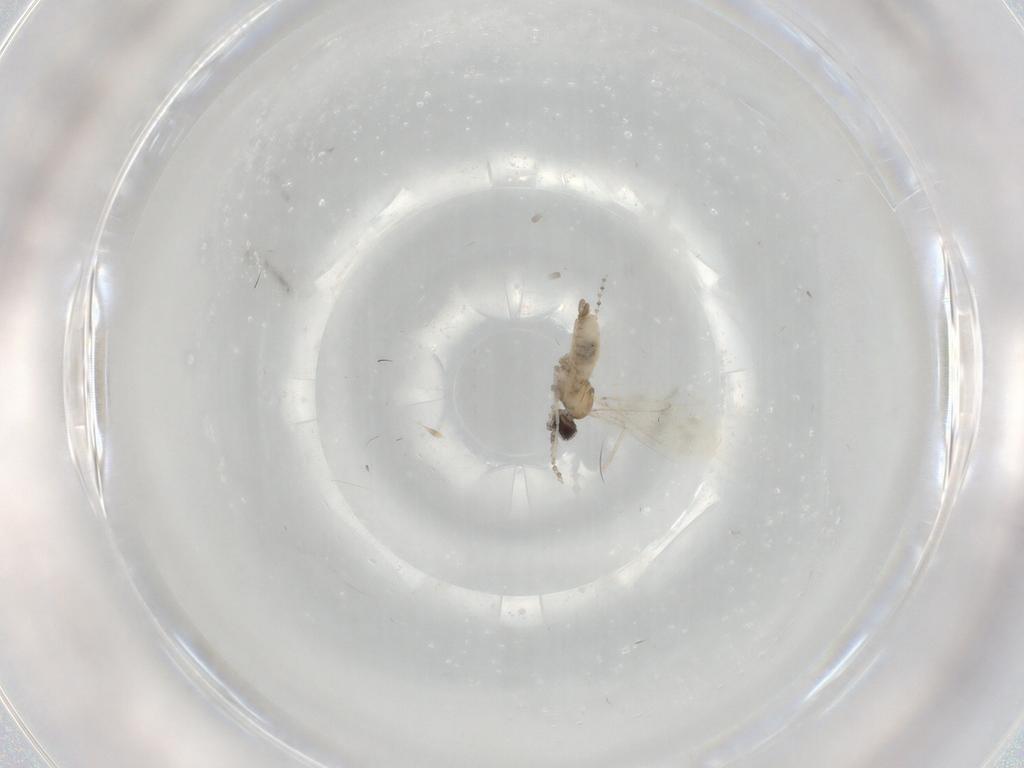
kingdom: Animalia
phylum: Arthropoda
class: Insecta
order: Diptera
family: Cecidomyiidae
